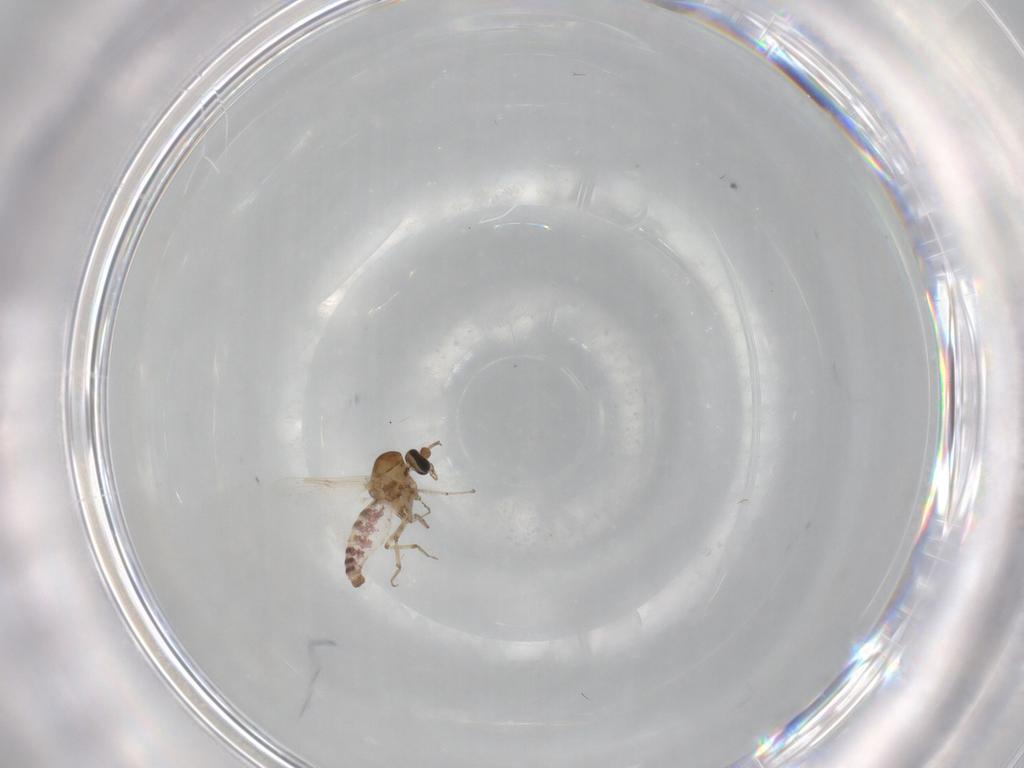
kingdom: Animalia
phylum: Arthropoda
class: Insecta
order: Diptera
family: Ceratopogonidae
